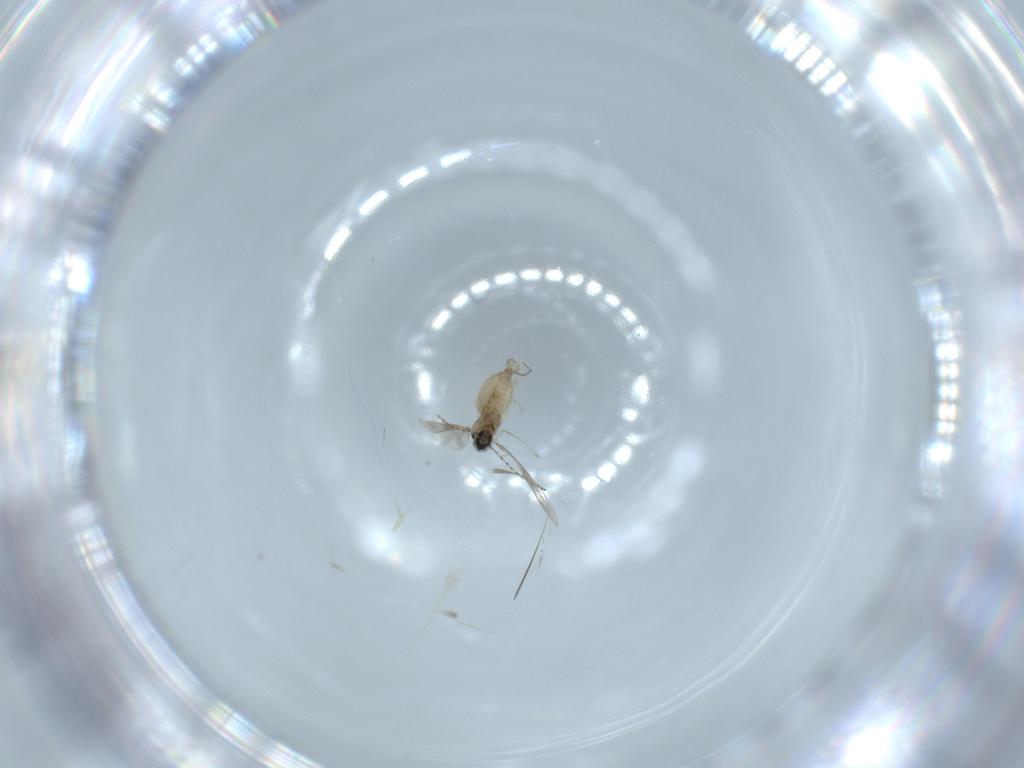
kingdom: Animalia
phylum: Arthropoda
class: Insecta
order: Diptera
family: Cecidomyiidae
